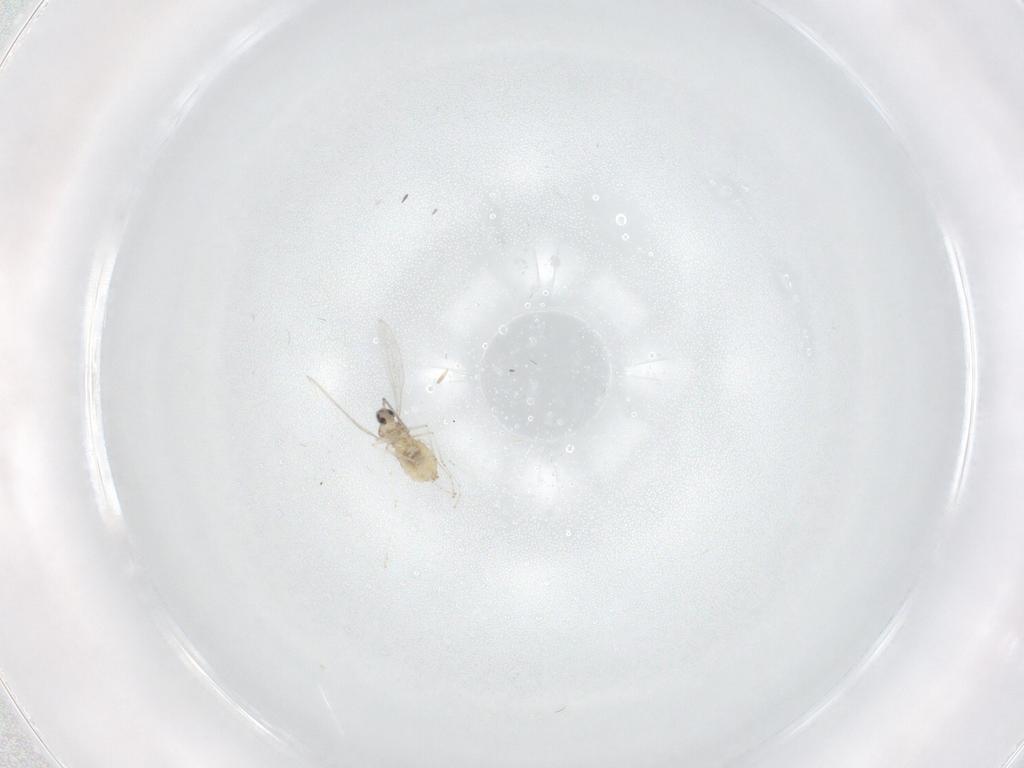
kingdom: Animalia
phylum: Arthropoda
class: Insecta
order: Diptera
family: Cecidomyiidae
